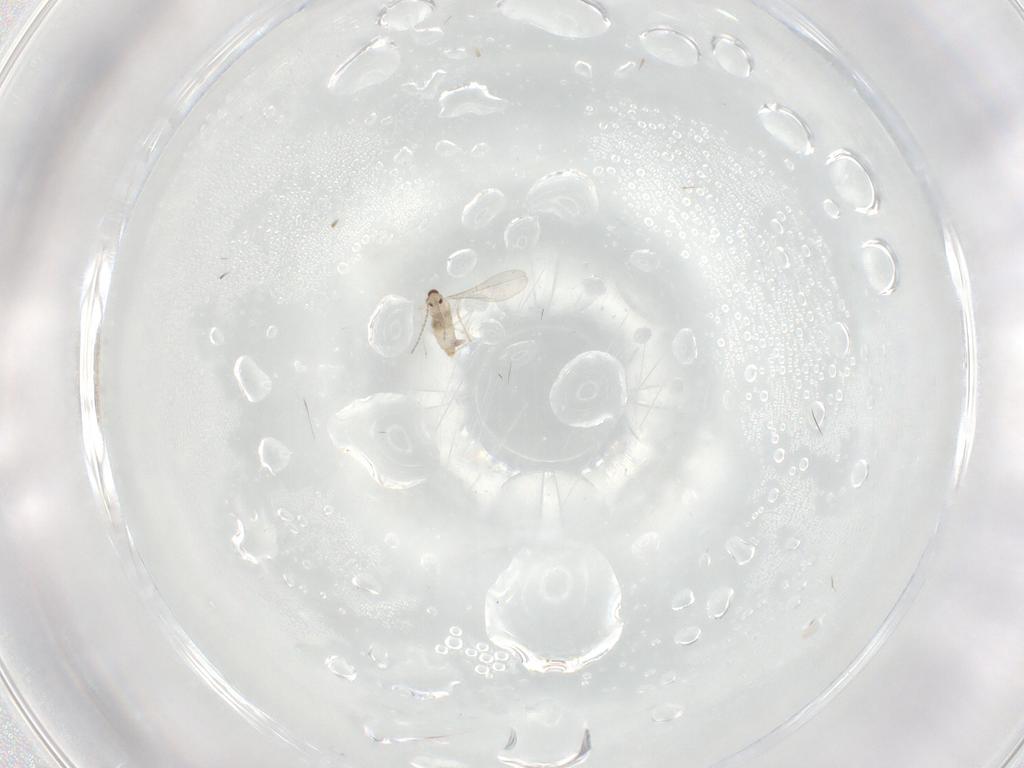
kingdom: Animalia
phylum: Arthropoda
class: Insecta
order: Diptera
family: Cecidomyiidae
